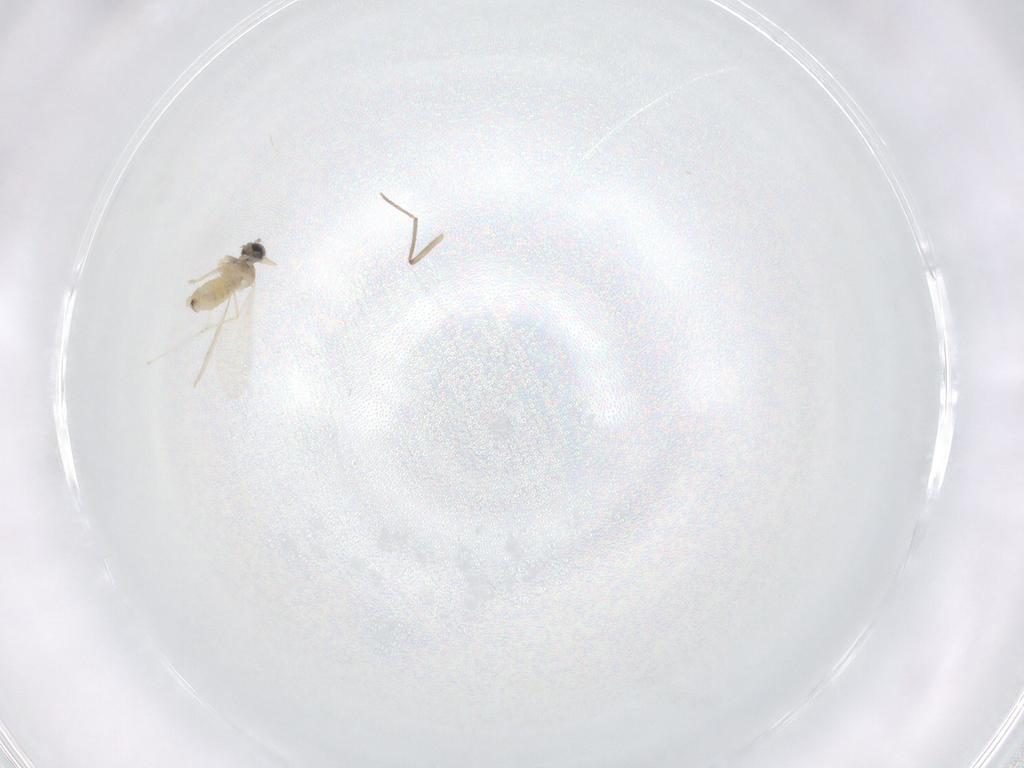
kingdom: Animalia
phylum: Arthropoda
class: Insecta
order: Diptera
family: Cecidomyiidae
